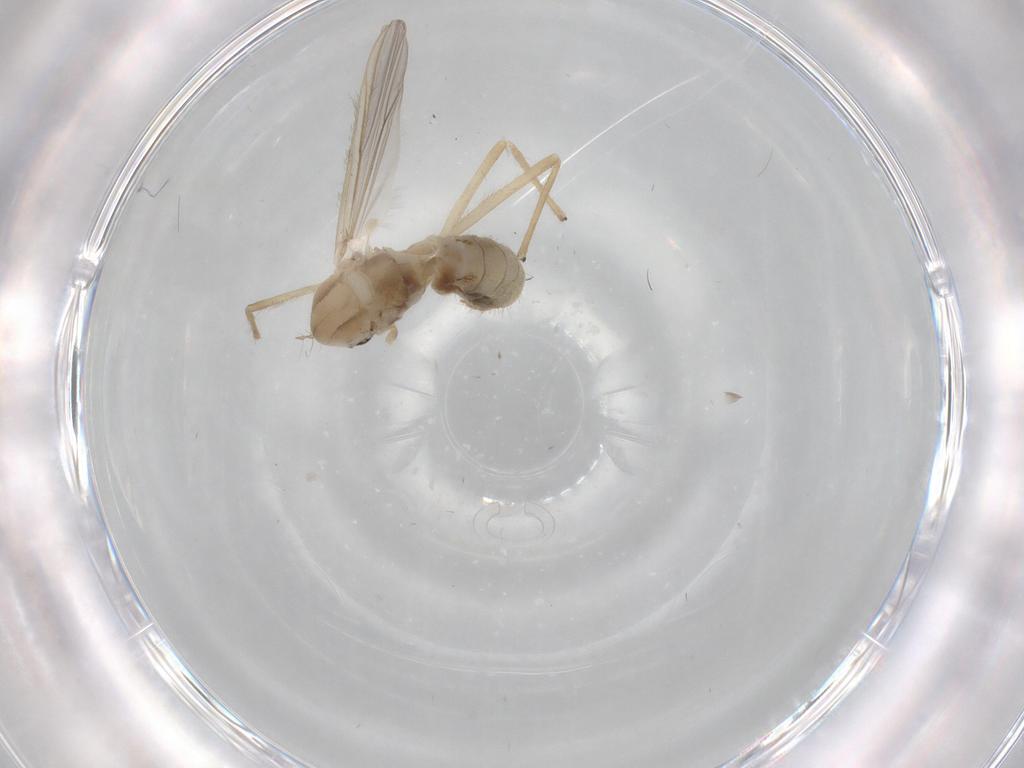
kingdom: Animalia
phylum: Arthropoda
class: Insecta
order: Diptera
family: Chironomidae
